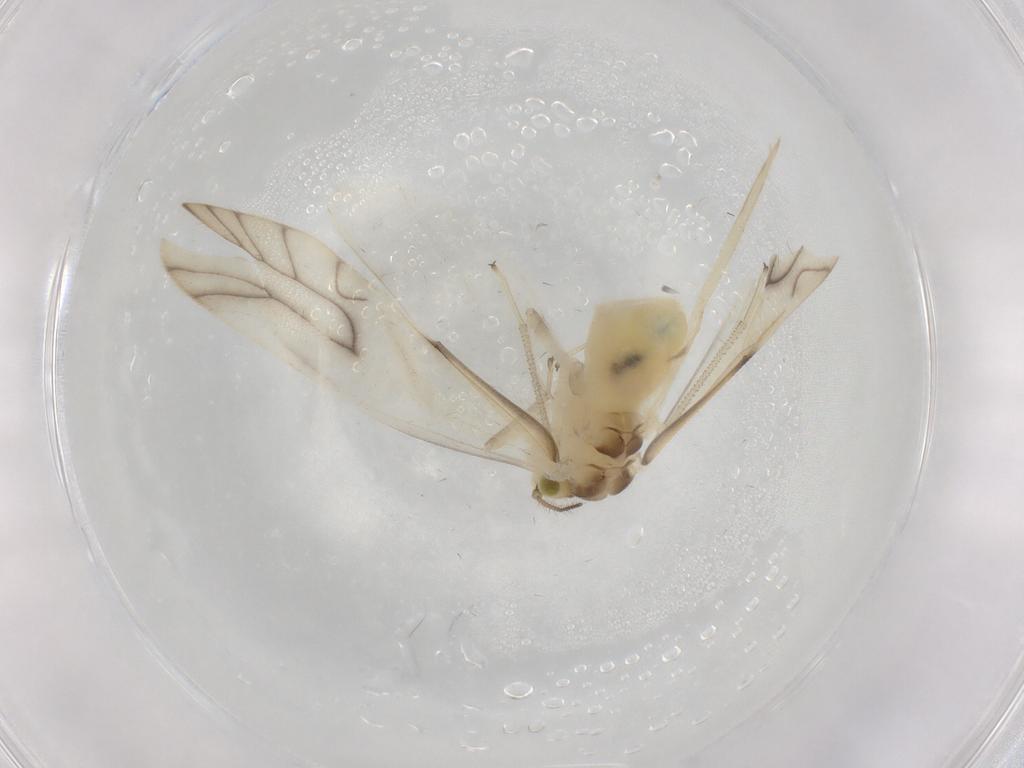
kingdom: Animalia
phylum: Arthropoda
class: Insecta
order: Psocodea
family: Caeciliusidae
